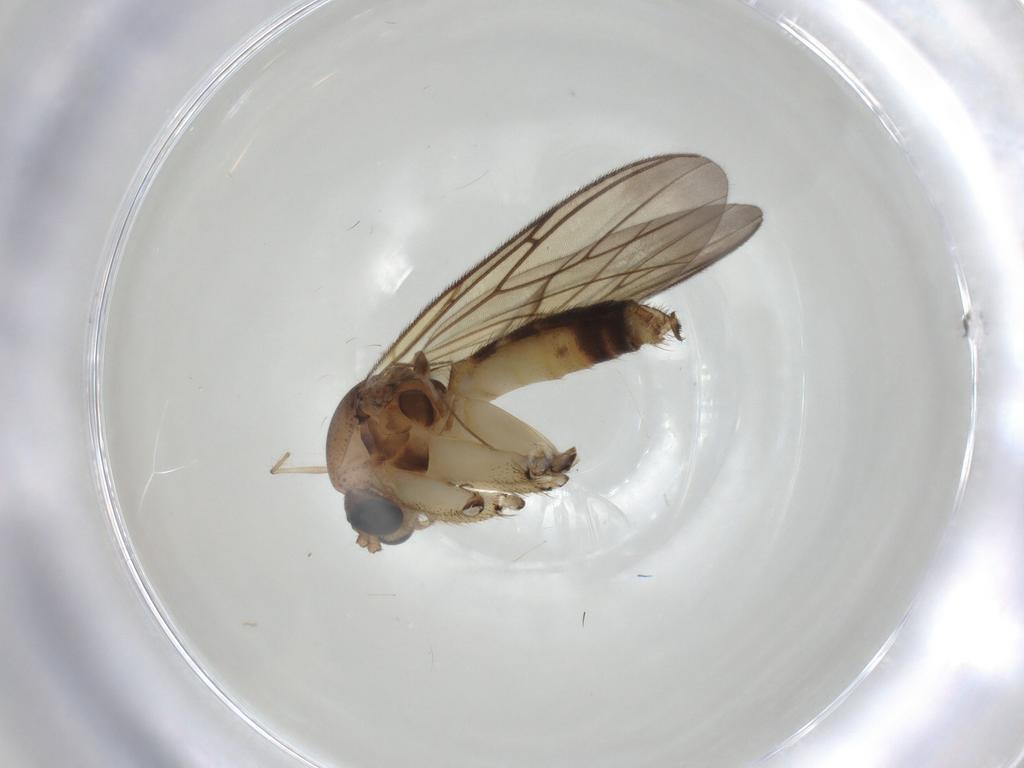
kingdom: Animalia
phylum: Arthropoda
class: Insecta
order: Diptera
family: Mycetophilidae
